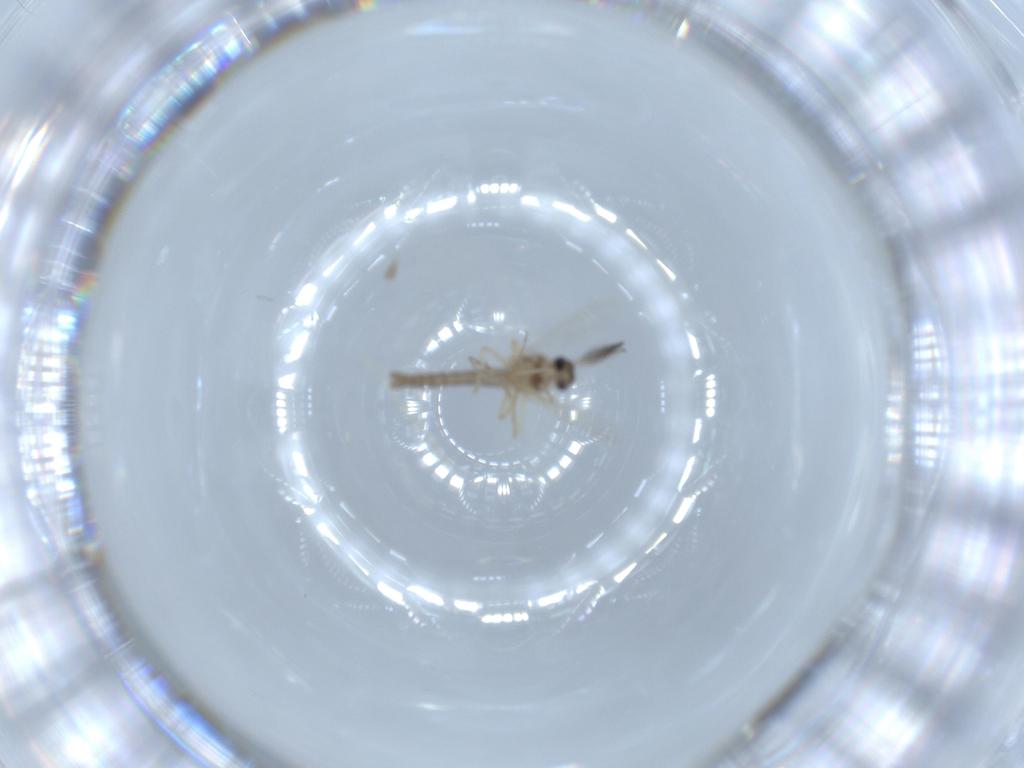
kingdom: Animalia
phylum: Arthropoda
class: Insecta
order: Diptera
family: Ceratopogonidae
